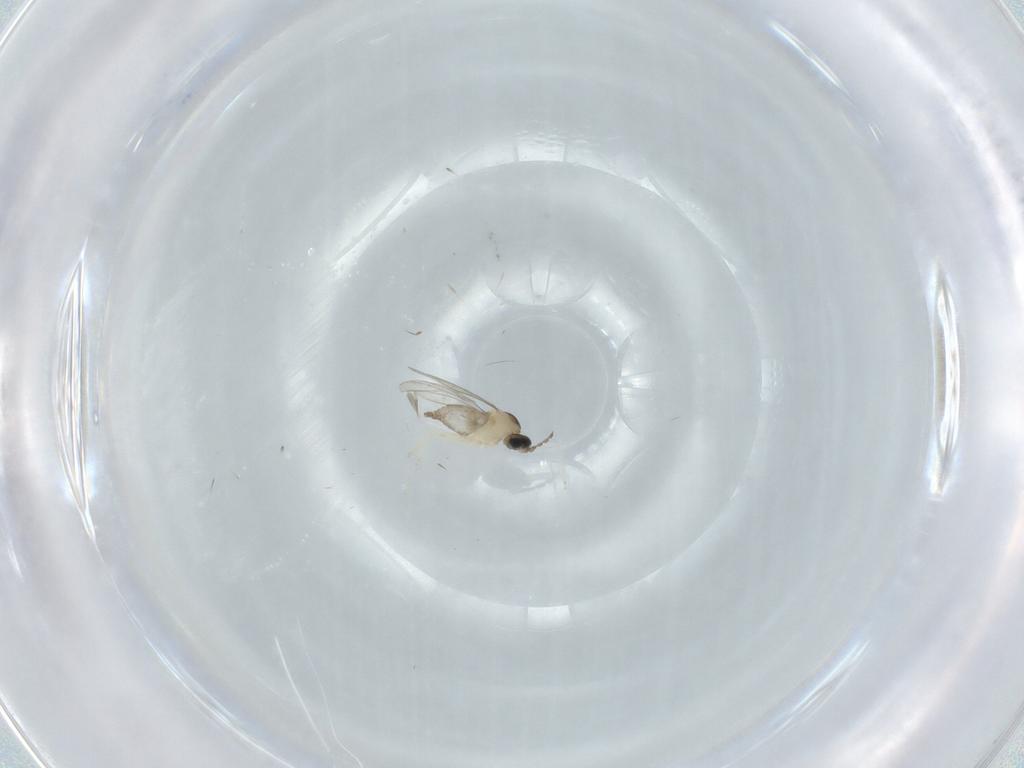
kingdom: Animalia
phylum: Arthropoda
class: Insecta
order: Diptera
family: Cecidomyiidae
